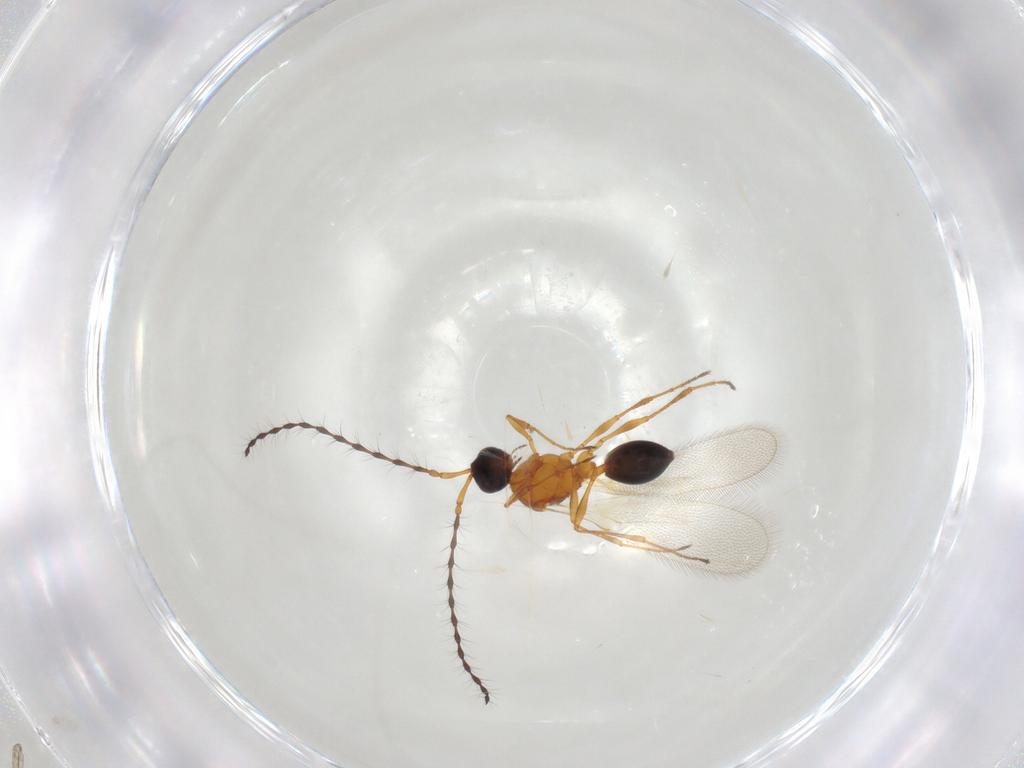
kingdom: Animalia
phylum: Arthropoda
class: Insecta
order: Hymenoptera
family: Diapriidae
